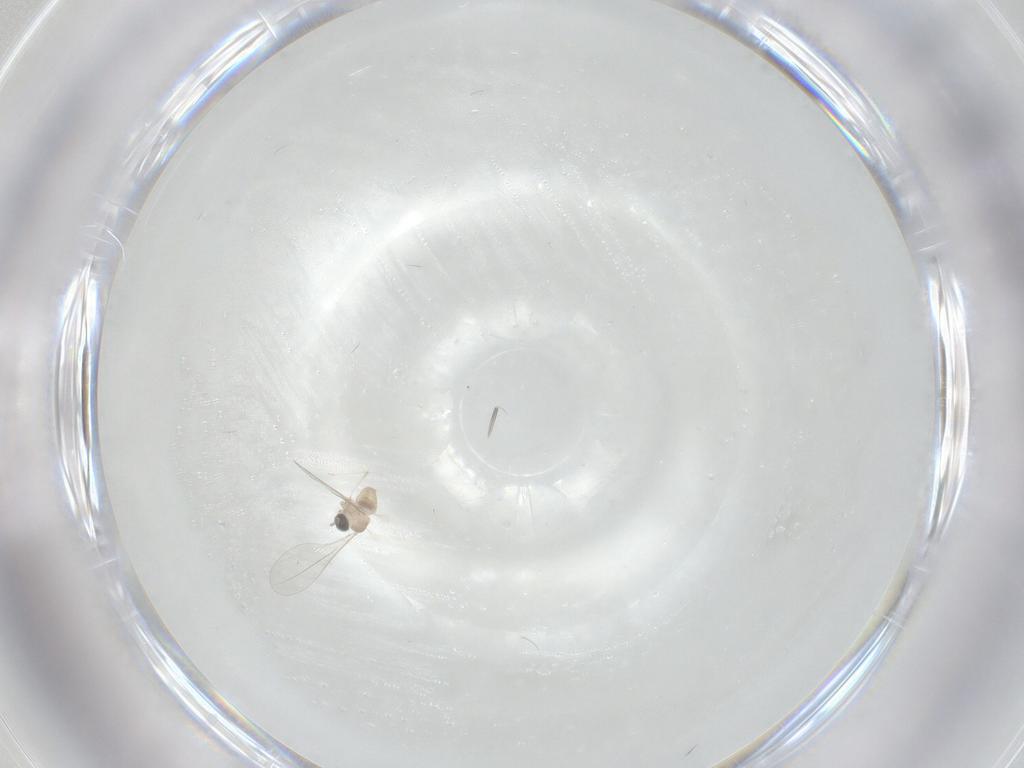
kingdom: Animalia
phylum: Arthropoda
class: Insecta
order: Diptera
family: Cecidomyiidae
